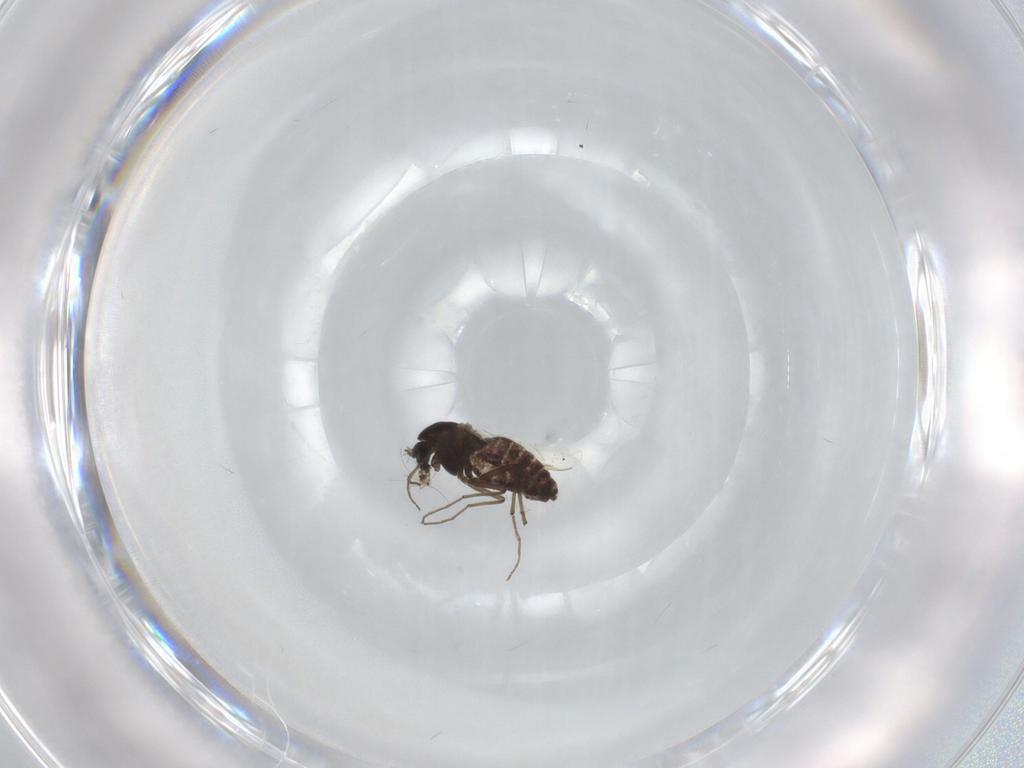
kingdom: Animalia
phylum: Arthropoda
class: Insecta
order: Diptera
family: Chironomidae
